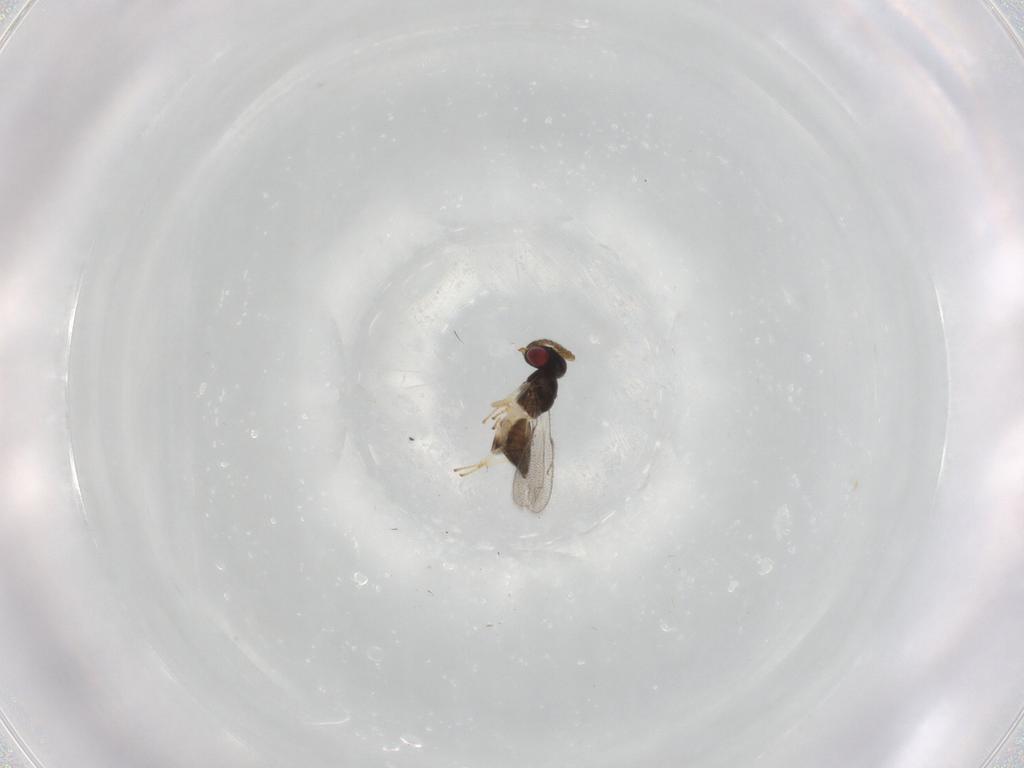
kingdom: Animalia
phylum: Arthropoda
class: Insecta
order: Hymenoptera
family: Pteromalidae
